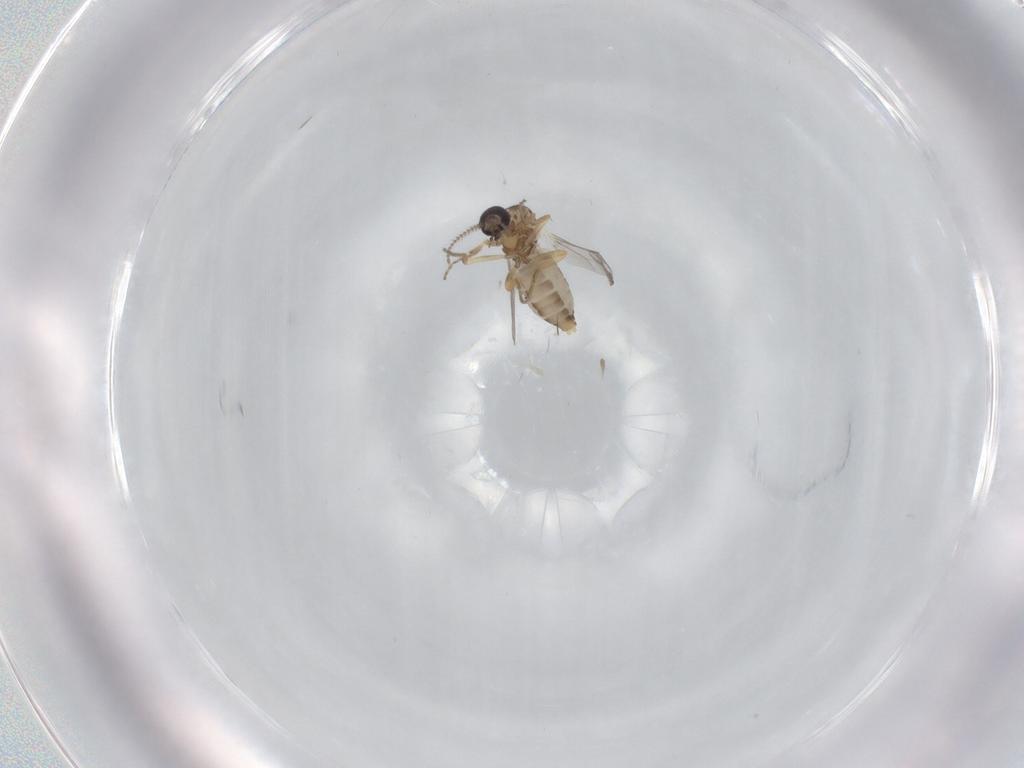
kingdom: Animalia
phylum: Arthropoda
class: Insecta
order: Diptera
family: Ceratopogonidae
